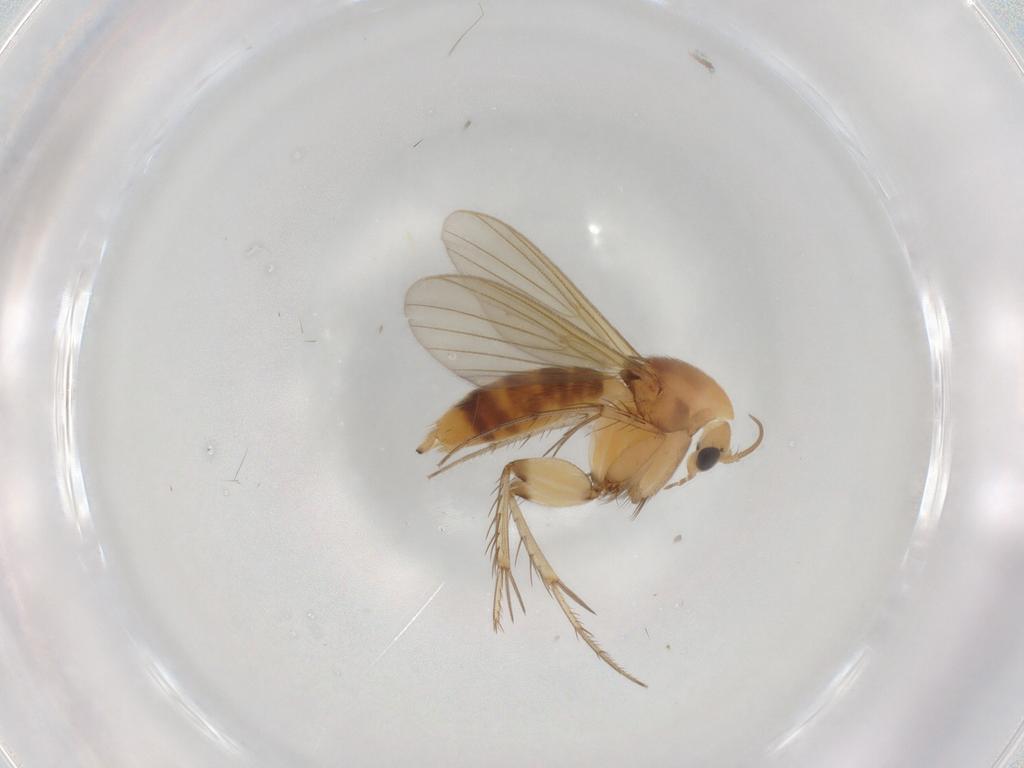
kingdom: Animalia
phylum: Arthropoda
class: Insecta
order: Diptera
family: Mycetophilidae
